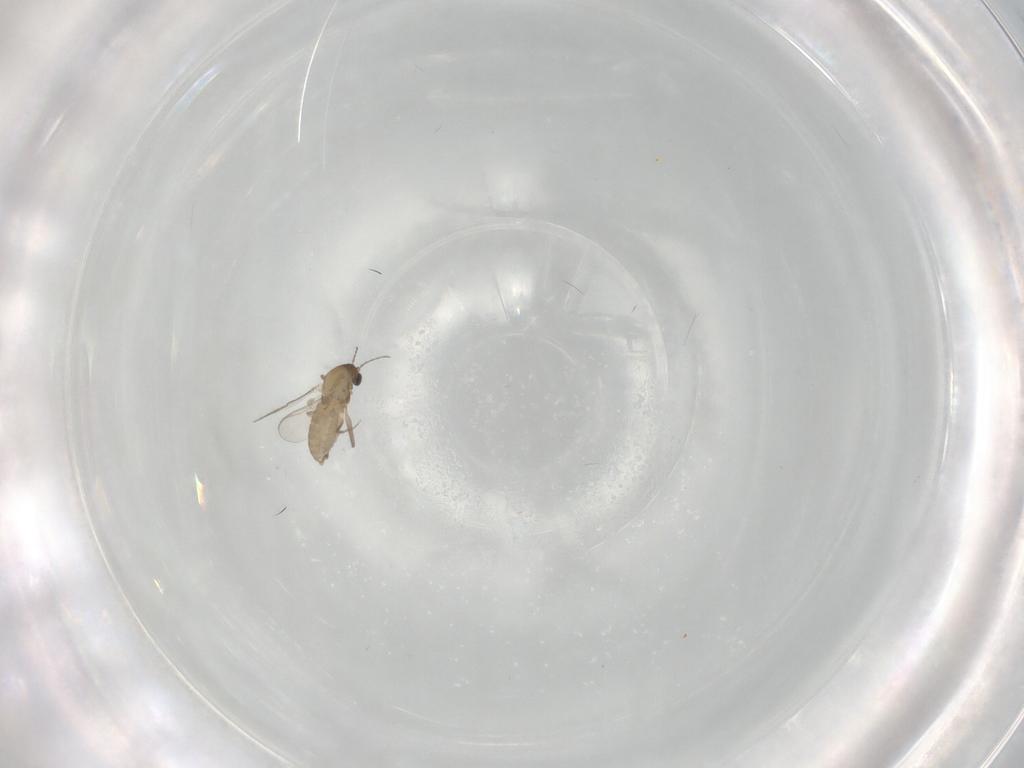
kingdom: Animalia
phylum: Arthropoda
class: Insecta
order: Diptera
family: Chironomidae
